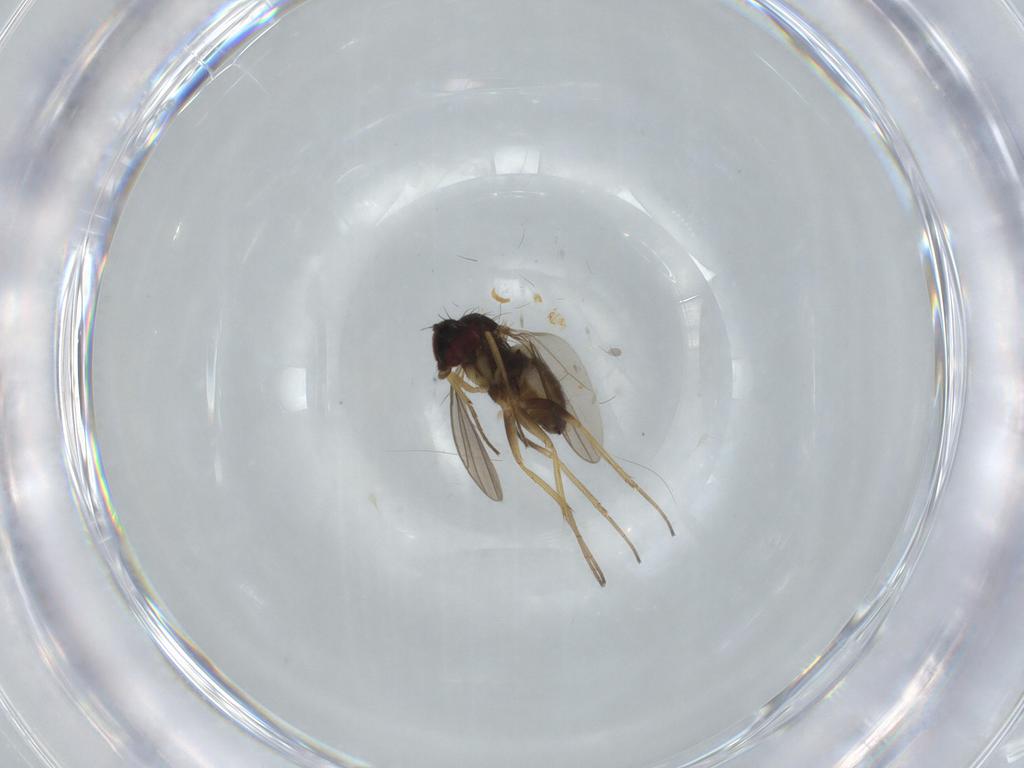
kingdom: Animalia
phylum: Arthropoda
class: Insecta
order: Diptera
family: Dolichopodidae
